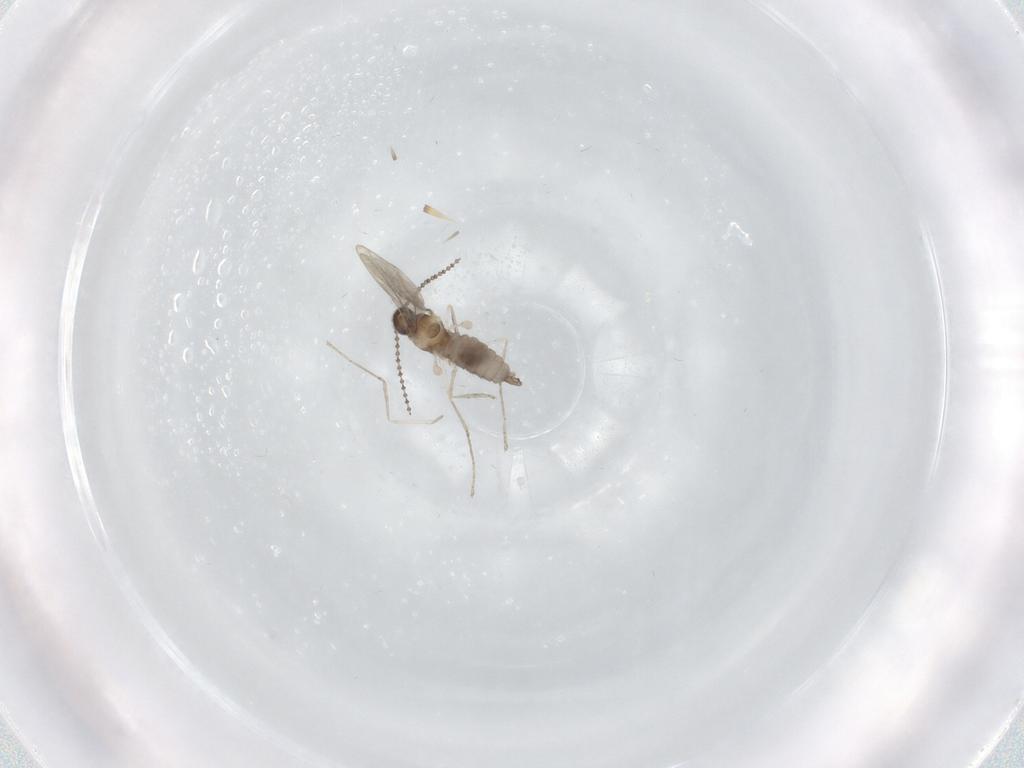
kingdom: Animalia
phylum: Arthropoda
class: Insecta
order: Diptera
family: Cecidomyiidae
